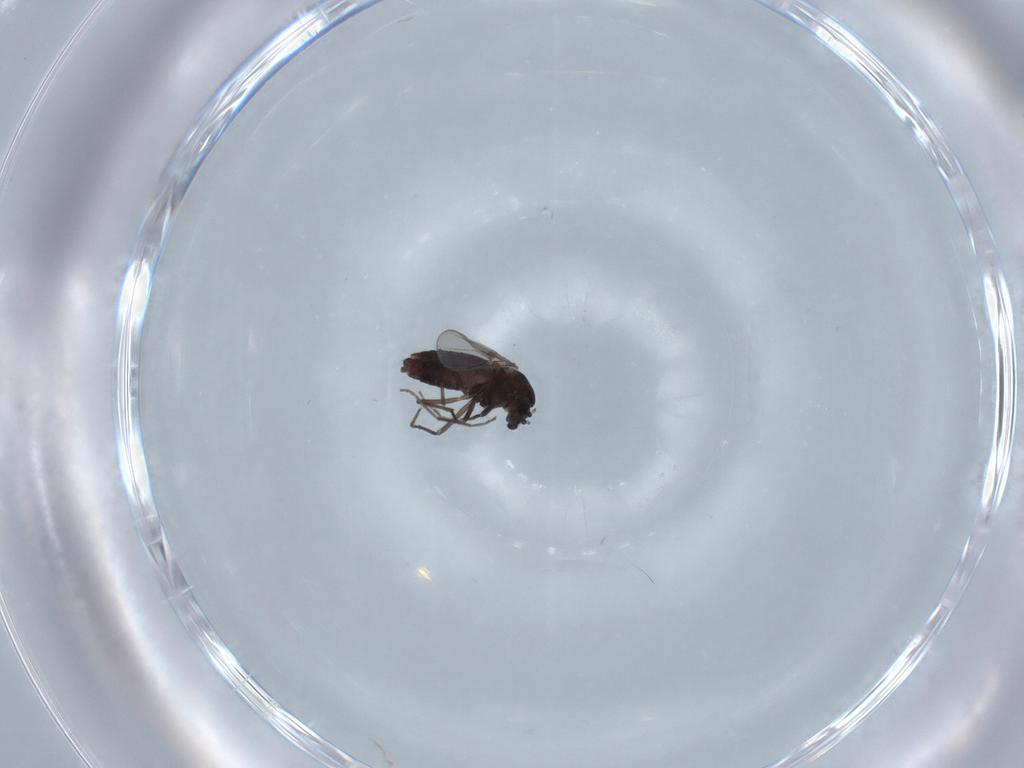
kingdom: Animalia
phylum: Arthropoda
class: Insecta
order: Diptera
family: Chironomidae
